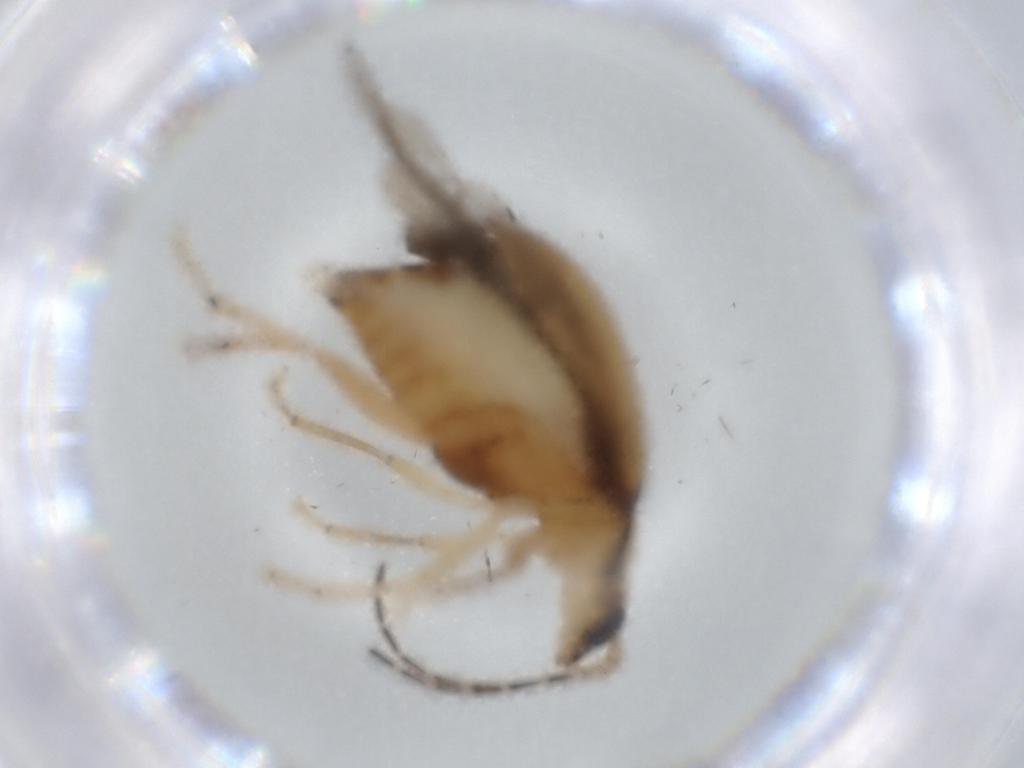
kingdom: Animalia
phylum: Arthropoda
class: Insecta
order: Coleoptera
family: Chrysomelidae
